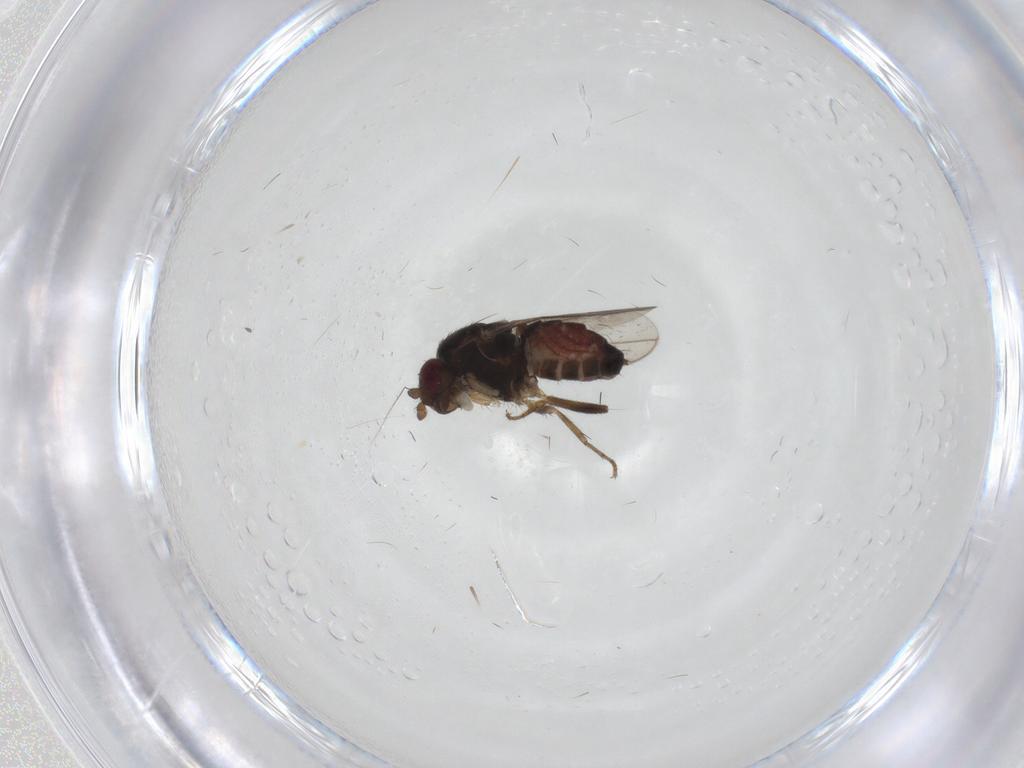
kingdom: Animalia
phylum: Arthropoda
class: Insecta
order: Diptera
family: Sphaeroceridae
